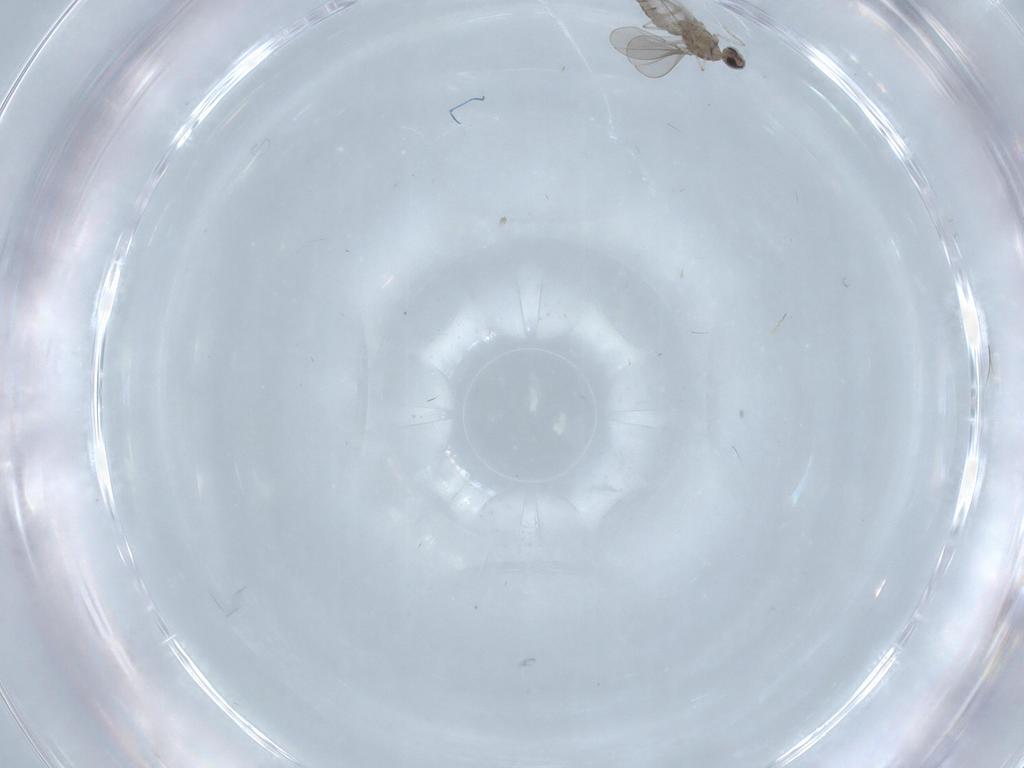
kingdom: Animalia
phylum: Arthropoda
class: Insecta
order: Diptera
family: Cecidomyiidae
